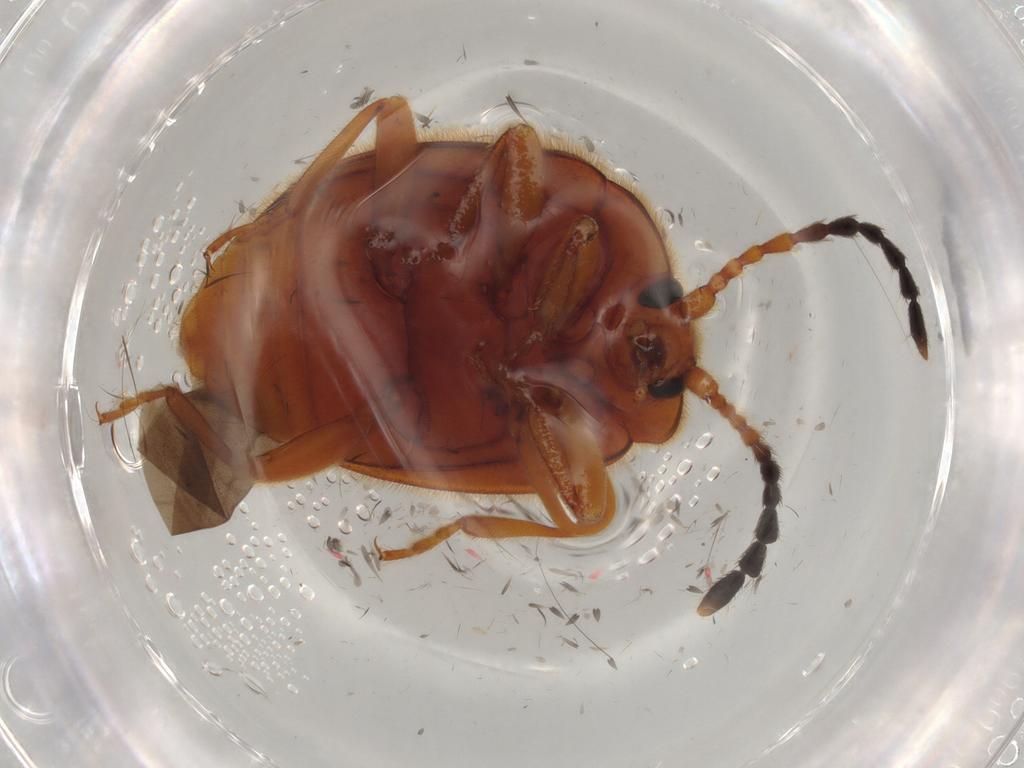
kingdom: Animalia
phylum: Arthropoda
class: Insecta
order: Coleoptera
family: Endomychidae
